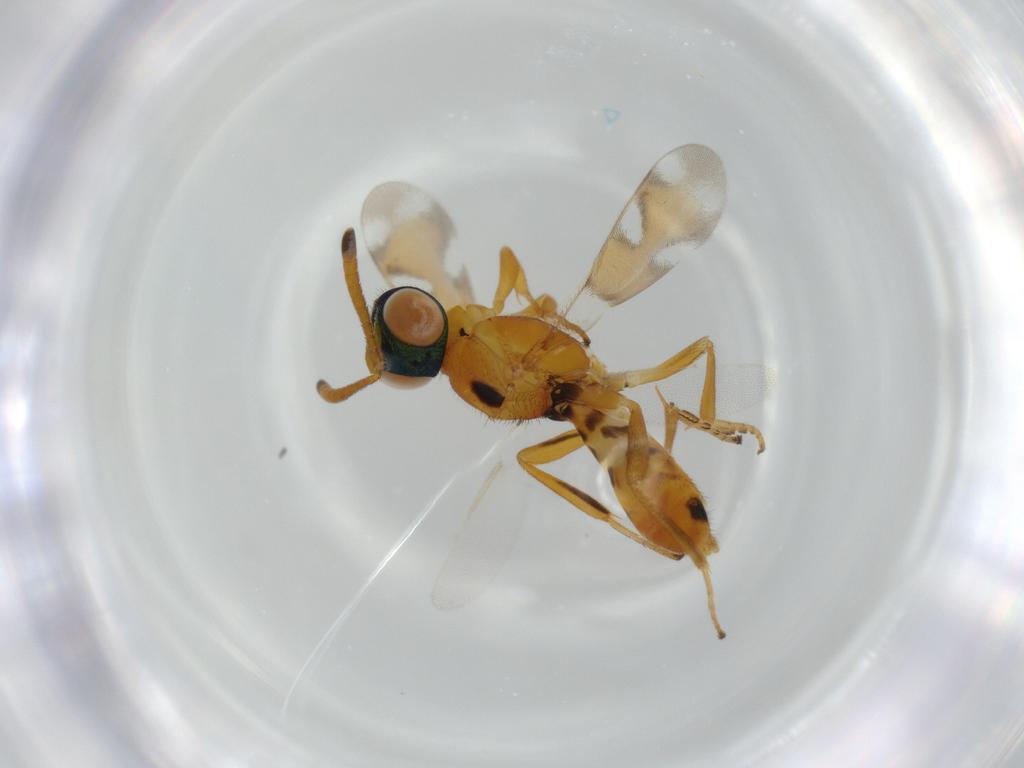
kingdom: Animalia
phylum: Arthropoda
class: Insecta
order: Hymenoptera
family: Eupelmidae
